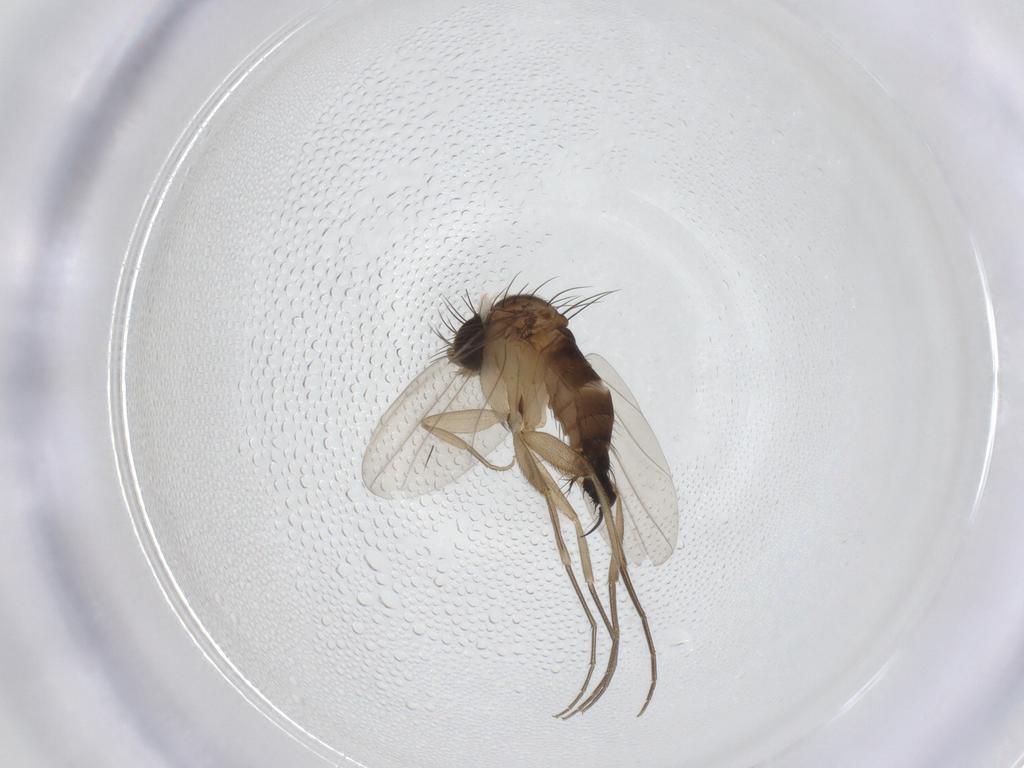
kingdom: Animalia
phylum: Arthropoda
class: Insecta
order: Diptera
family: Phoridae
